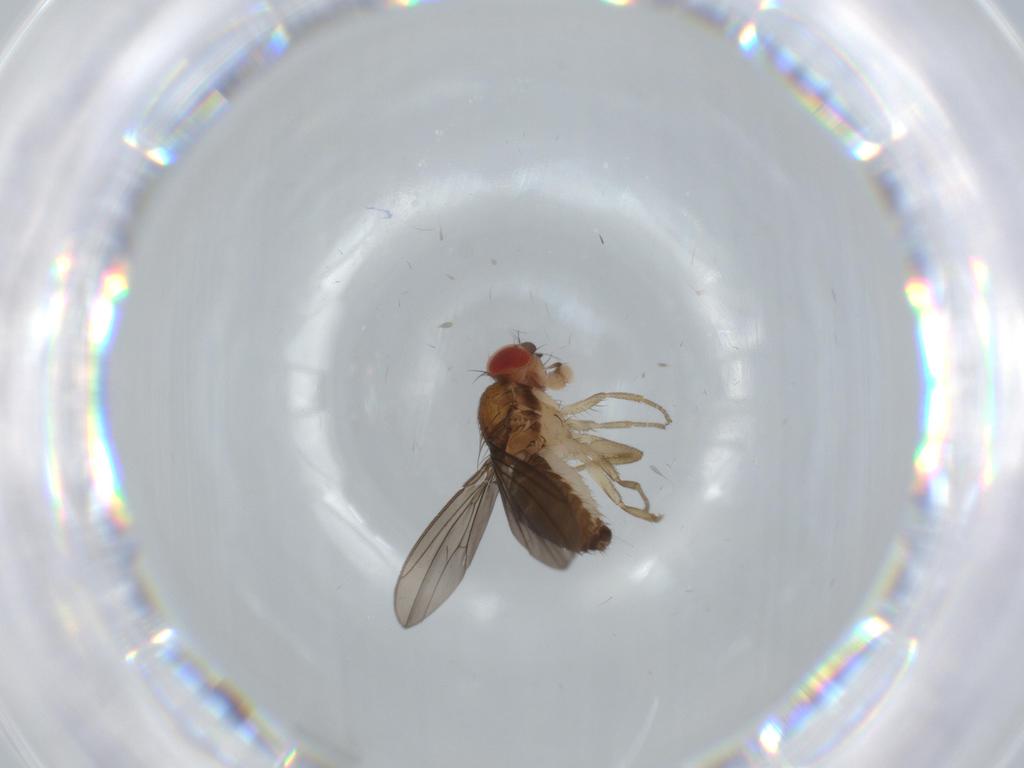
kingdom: Animalia
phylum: Arthropoda
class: Insecta
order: Diptera
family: Drosophilidae
